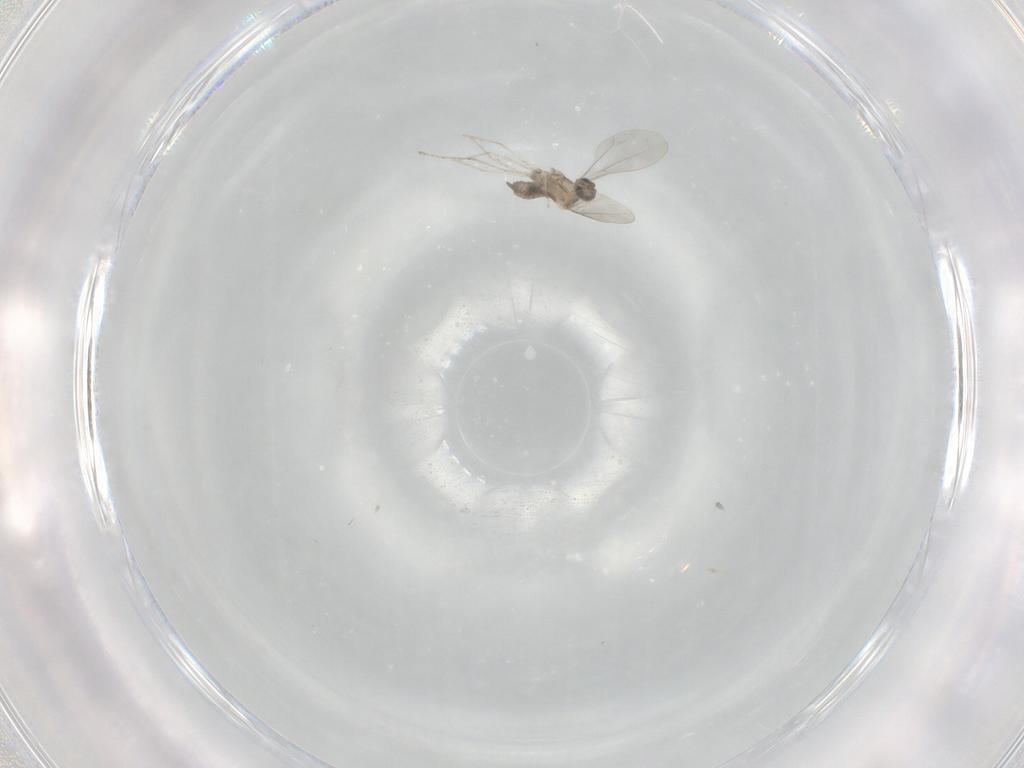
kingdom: Animalia
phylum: Arthropoda
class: Insecta
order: Diptera
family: Cecidomyiidae
